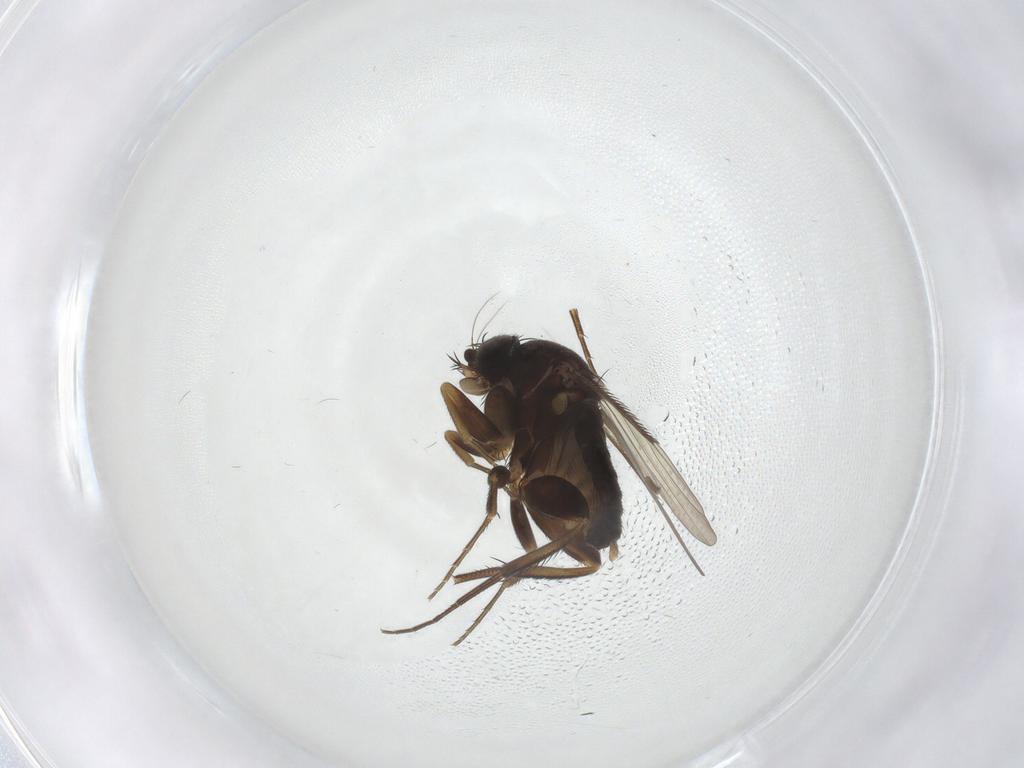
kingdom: Animalia
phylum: Arthropoda
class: Insecta
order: Diptera
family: Phoridae
